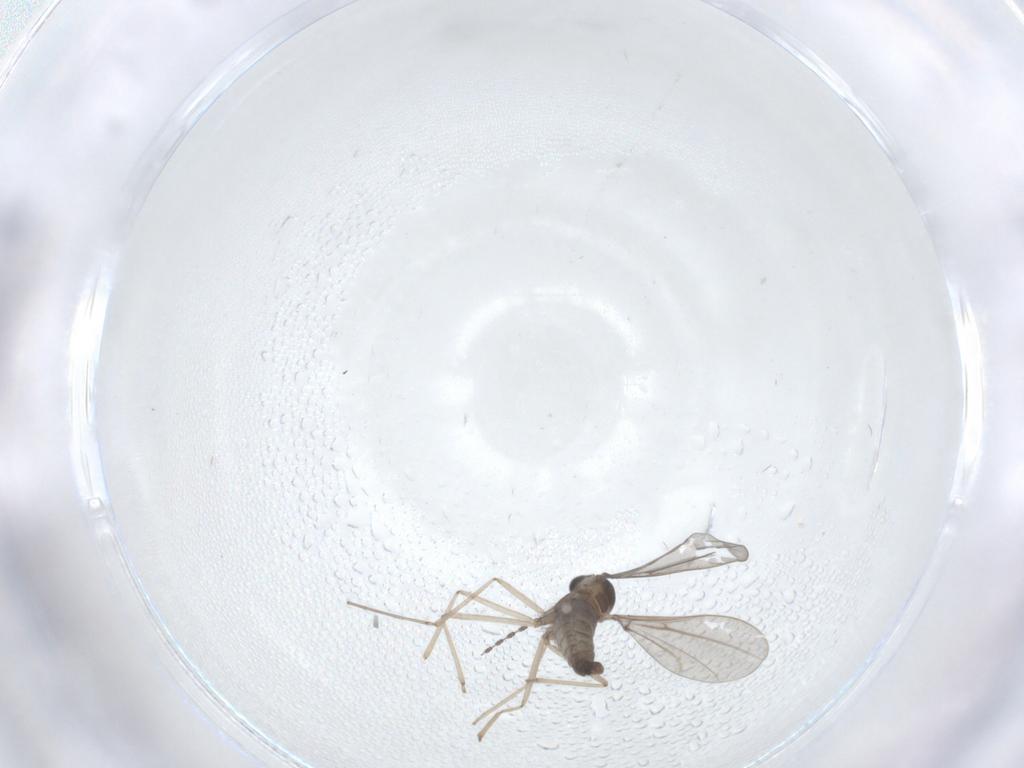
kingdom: Animalia
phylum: Arthropoda
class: Insecta
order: Diptera
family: Cecidomyiidae
